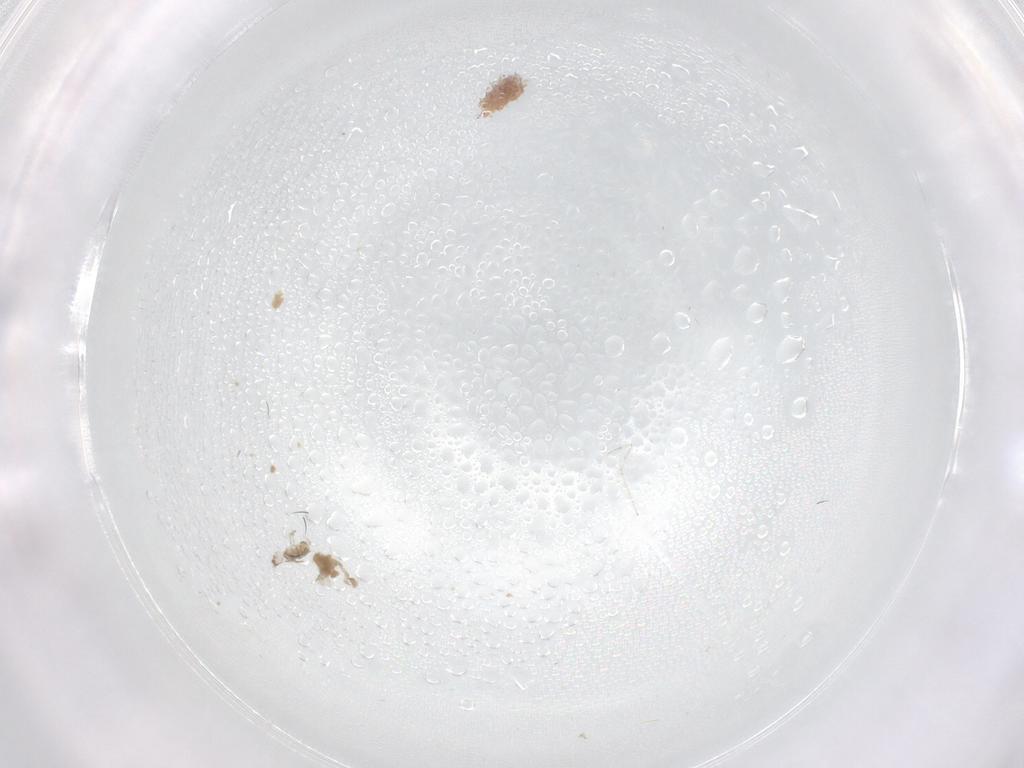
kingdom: Animalia
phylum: Arthropoda
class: Insecta
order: Diptera
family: Cecidomyiidae
